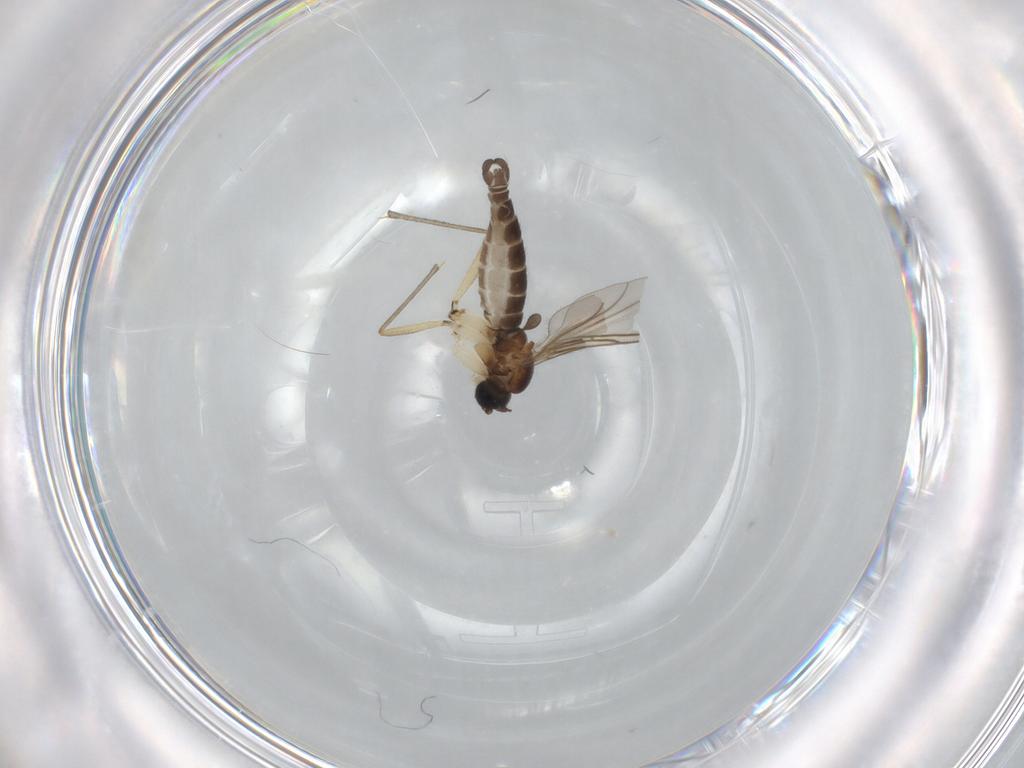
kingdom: Animalia
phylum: Arthropoda
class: Insecta
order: Diptera
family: Sciaridae
